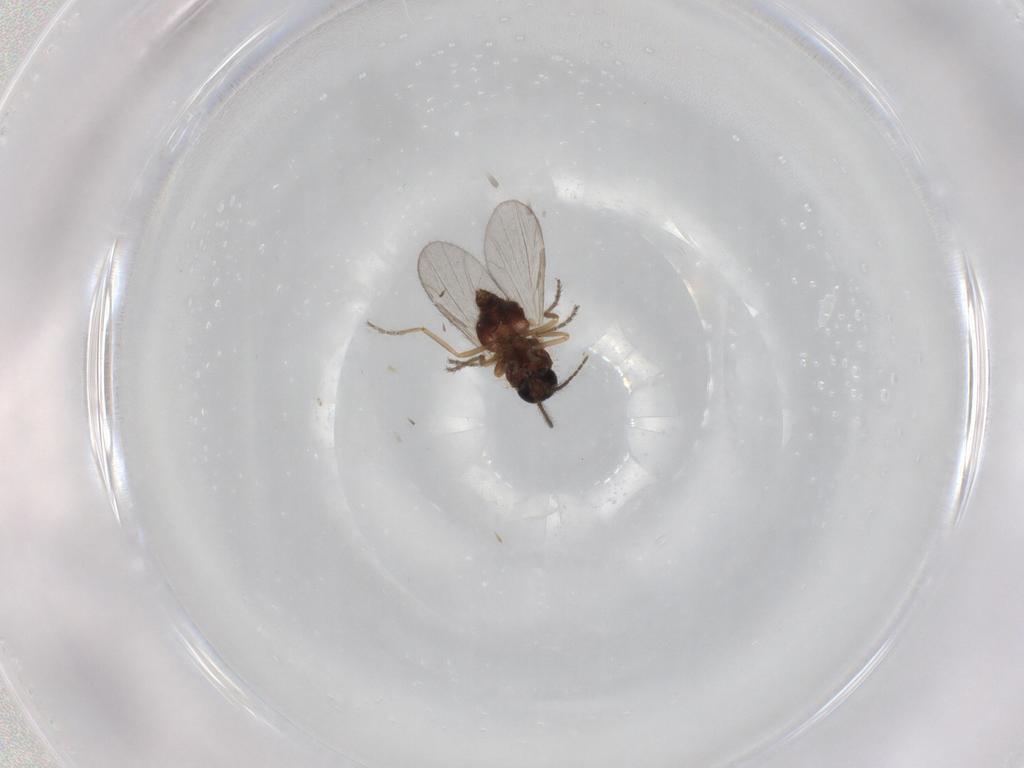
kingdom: Animalia
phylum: Arthropoda
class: Insecta
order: Diptera
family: Ceratopogonidae
